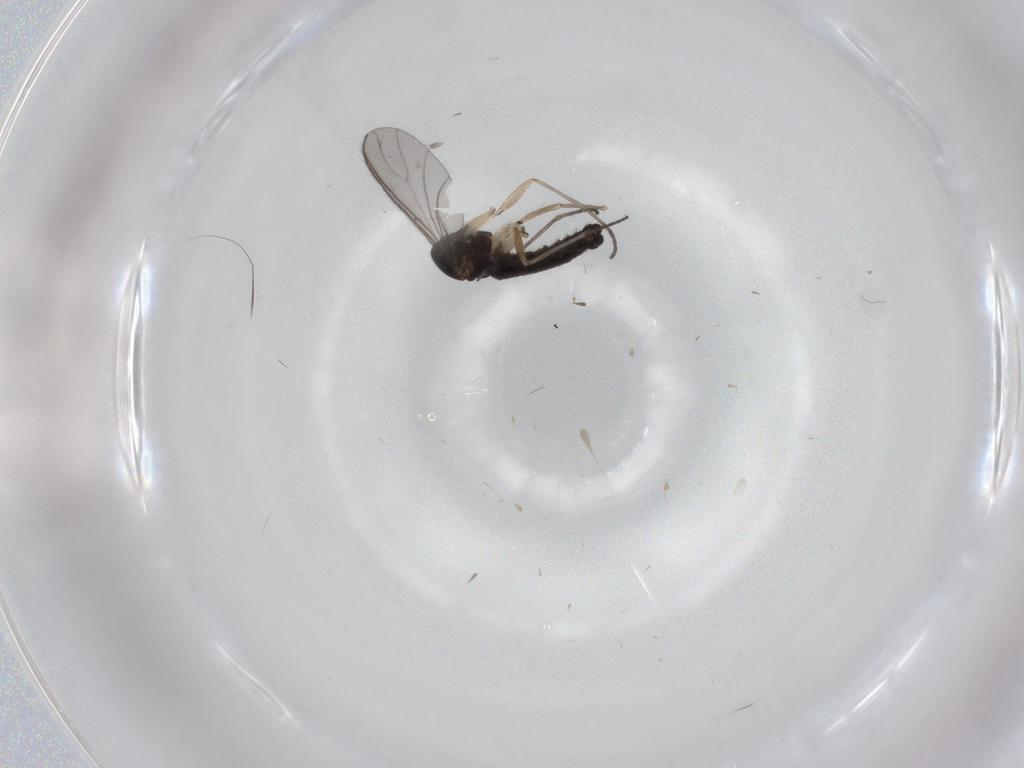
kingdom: Animalia
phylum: Arthropoda
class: Insecta
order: Diptera
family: Sciaridae
